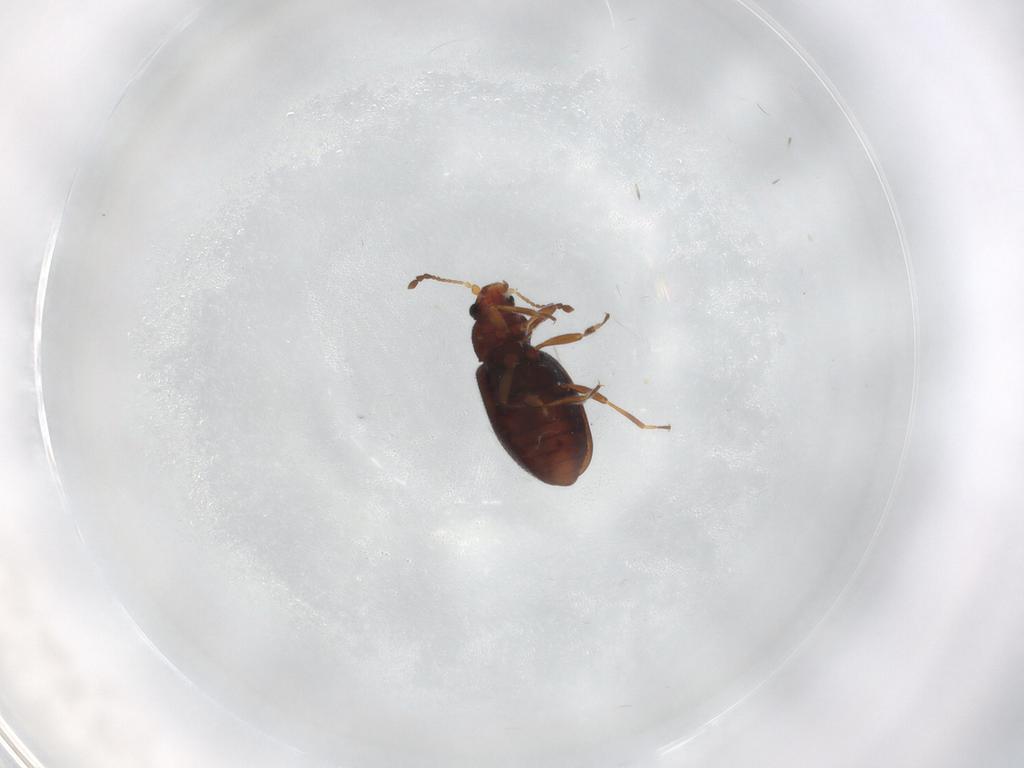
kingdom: Animalia
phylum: Arthropoda
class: Insecta
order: Coleoptera
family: Latridiidae
